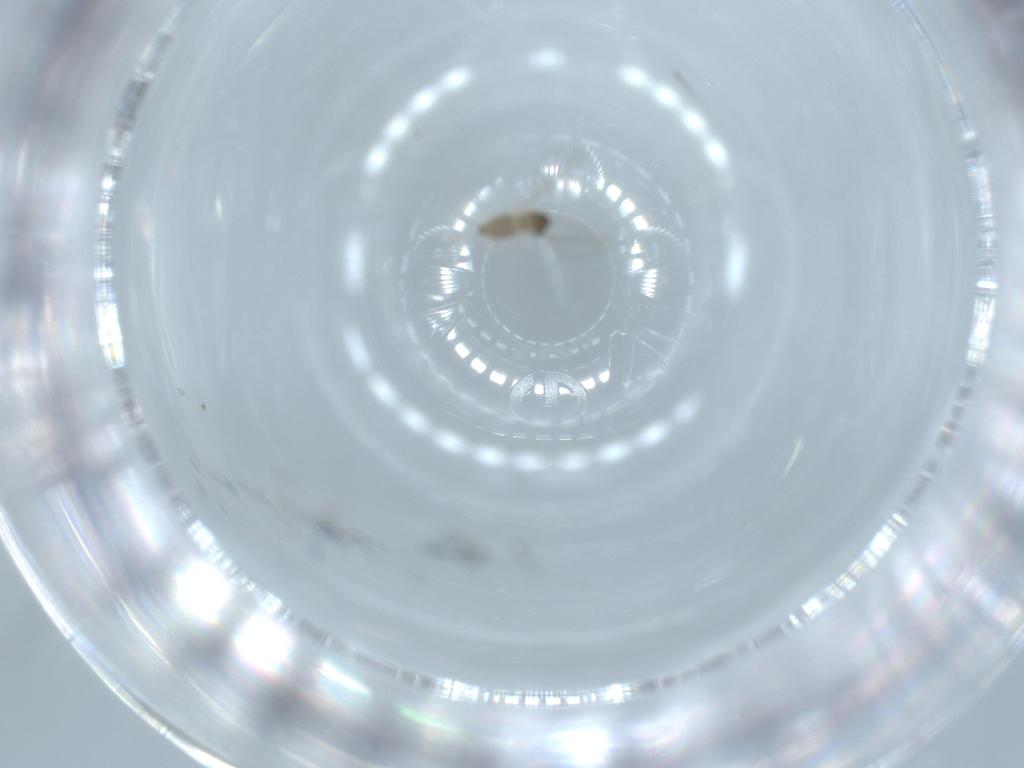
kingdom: Animalia
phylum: Arthropoda
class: Insecta
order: Diptera
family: Cecidomyiidae
